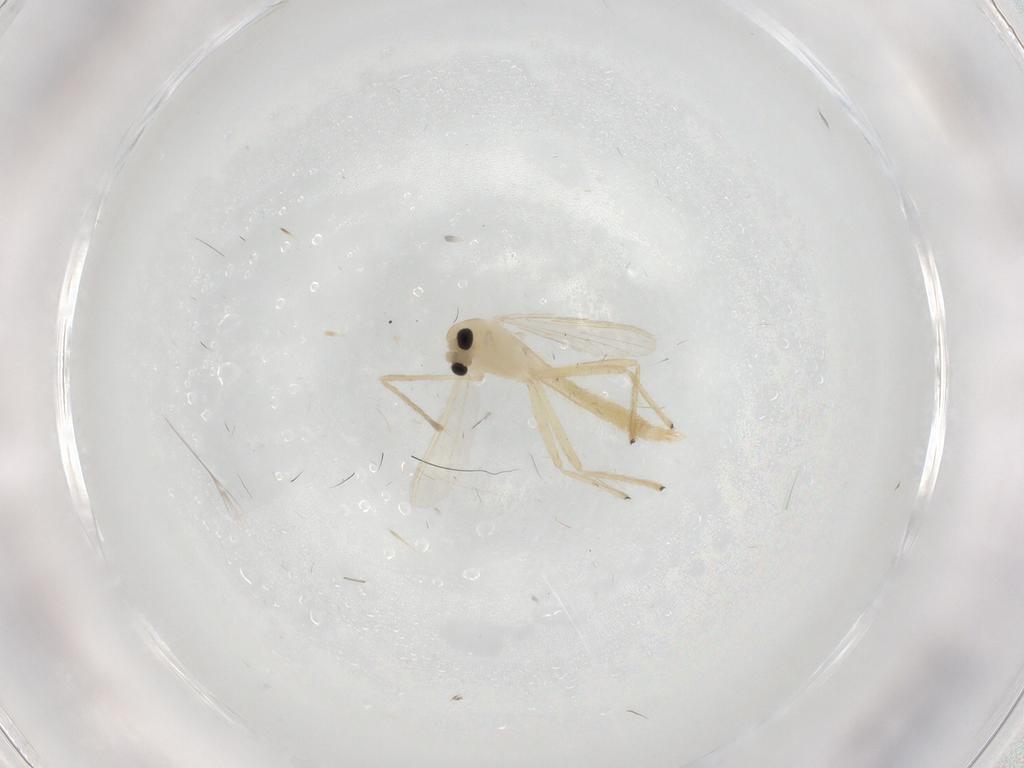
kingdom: Animalia
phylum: Arthropoda
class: Insecta
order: Diptera
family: Chironomidae
